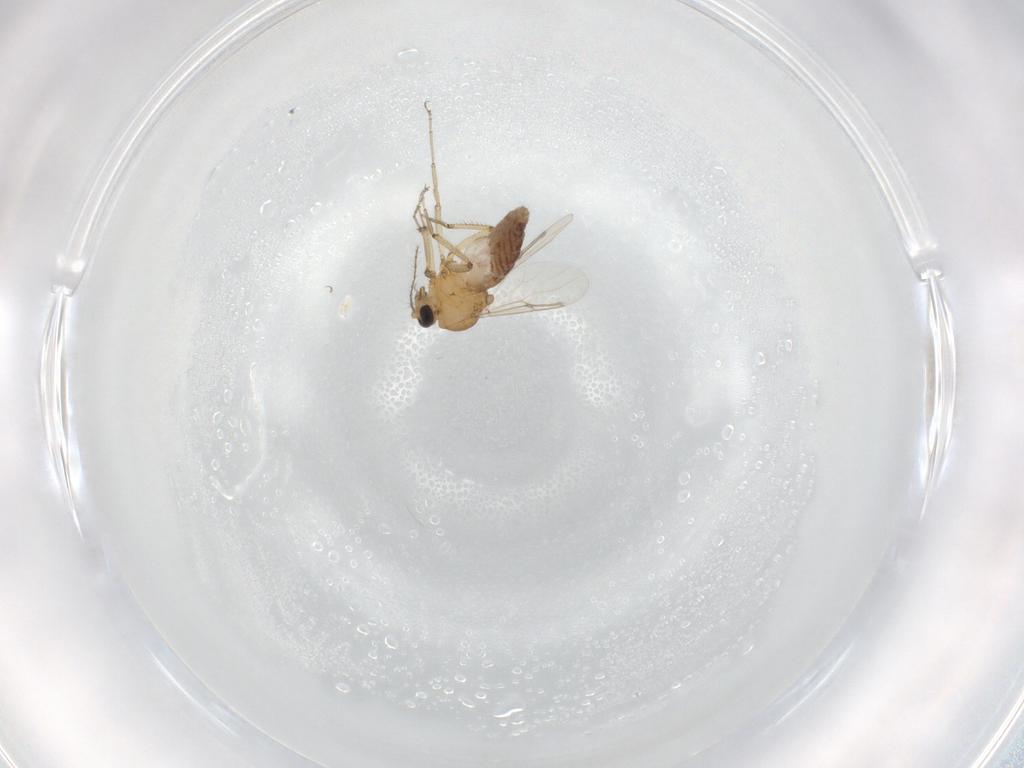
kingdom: Animalia
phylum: Arthropoda
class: Insecta
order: Diptera
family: Ceratopogonidae
